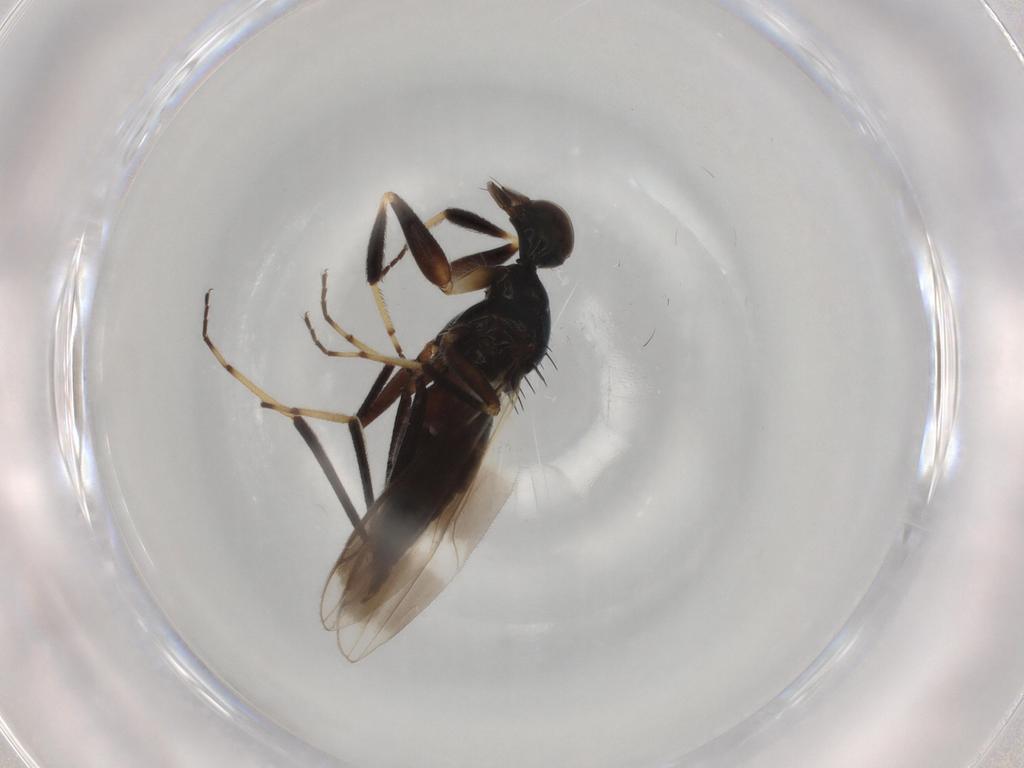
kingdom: Animalia
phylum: Arthropoda
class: Insecta
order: Diptera
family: Hybotidae
